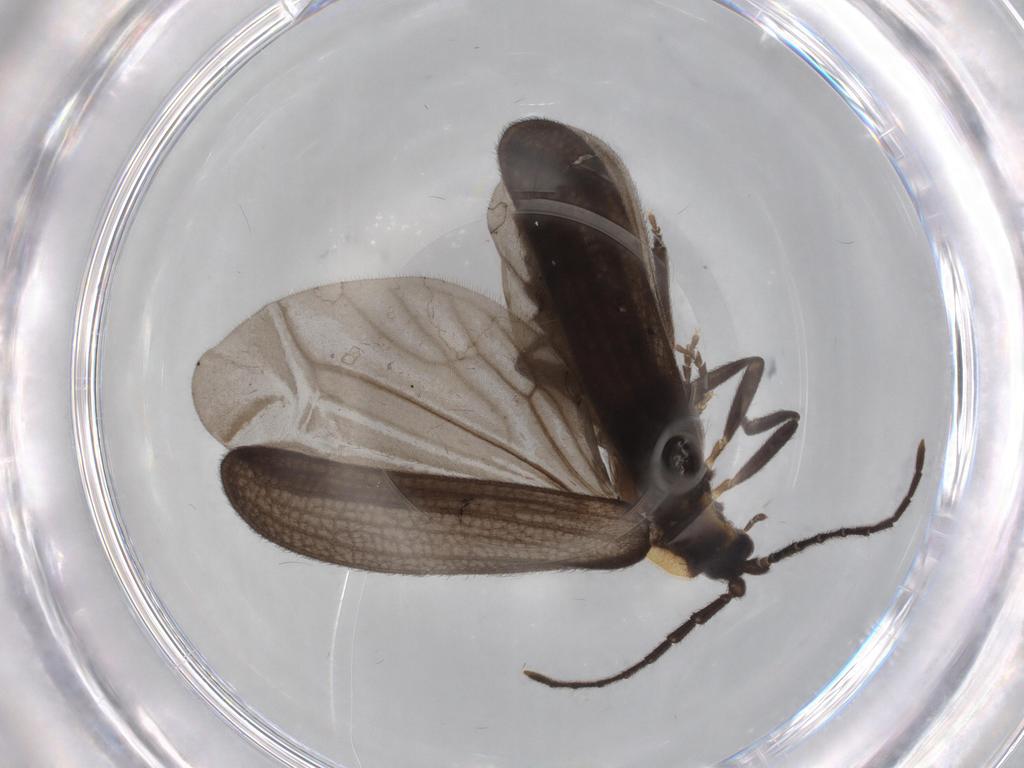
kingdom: Animalia
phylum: Arthropoda
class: Insecta
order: Coleoptera
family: Lycidae
